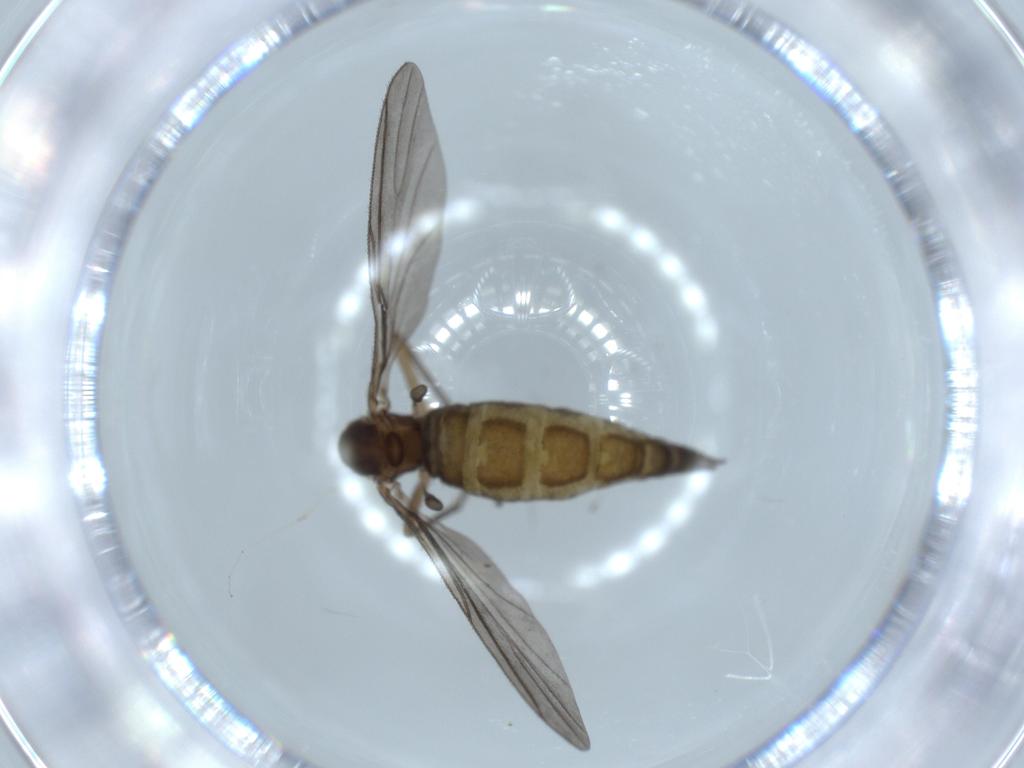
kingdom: Animalia
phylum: Arthropoda
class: Insecta
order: Diptera
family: Sciaridae
